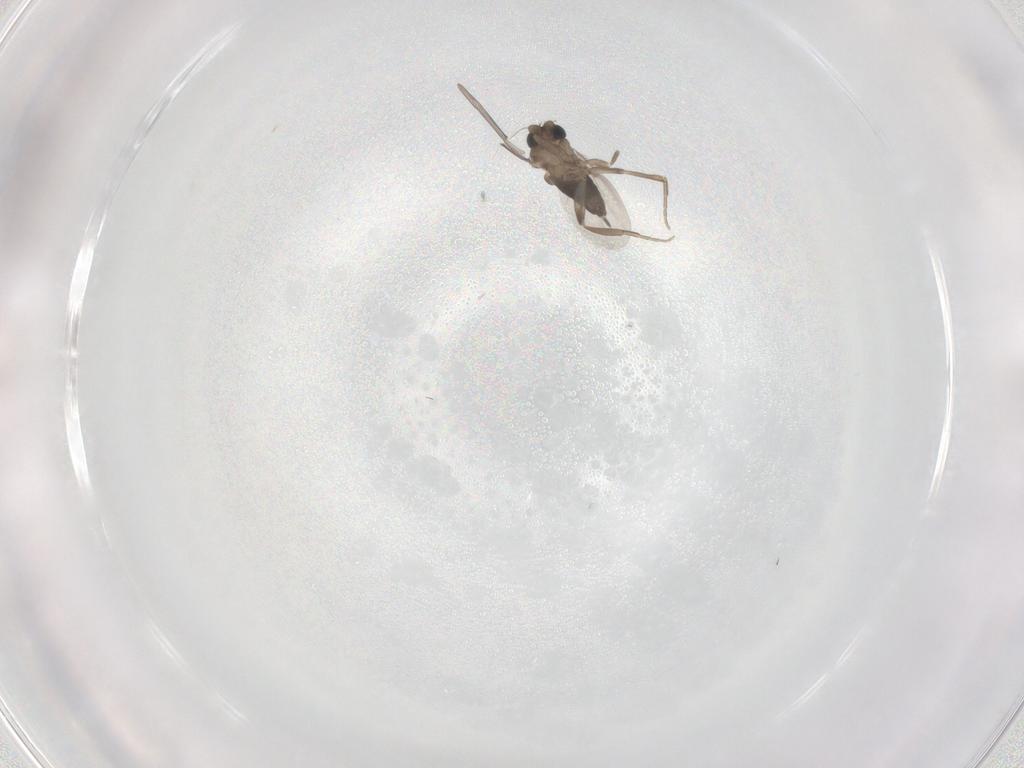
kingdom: Animalia
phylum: Arthropoda
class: Insecta
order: Diptera
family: Phoridae
